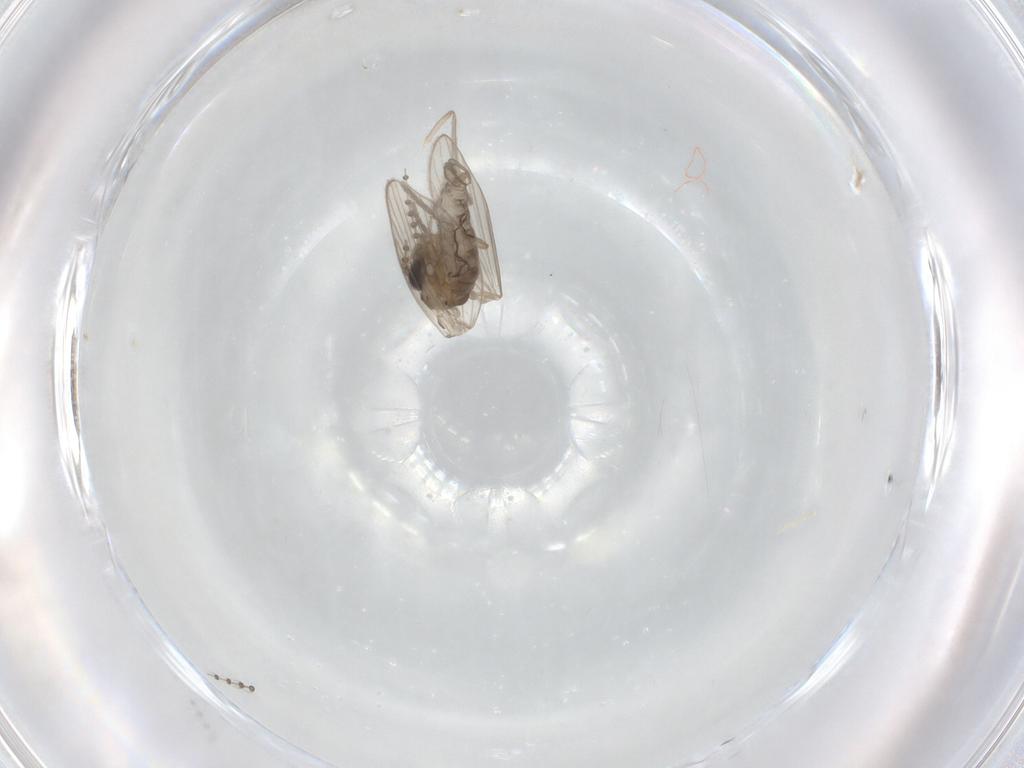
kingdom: Animalia
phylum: Arthropoda
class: Insecta
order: Diptera
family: Psychodidae
